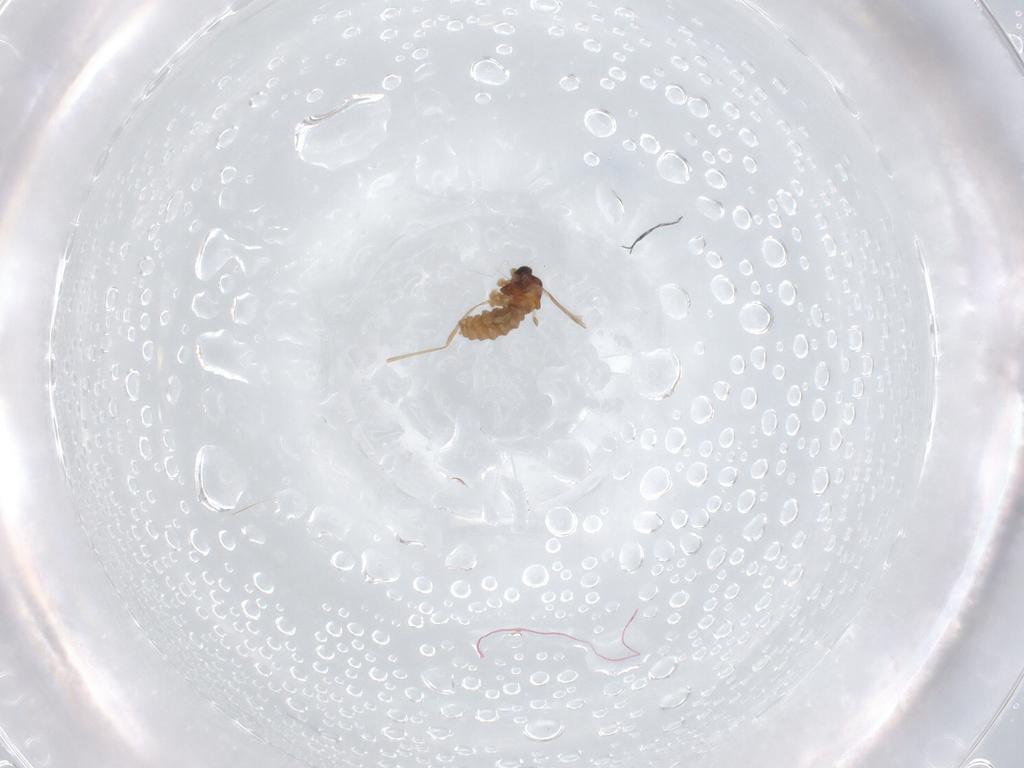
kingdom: Animalia
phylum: Arthropoda
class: Insecta
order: Diptera
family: Cecidomyiidae
